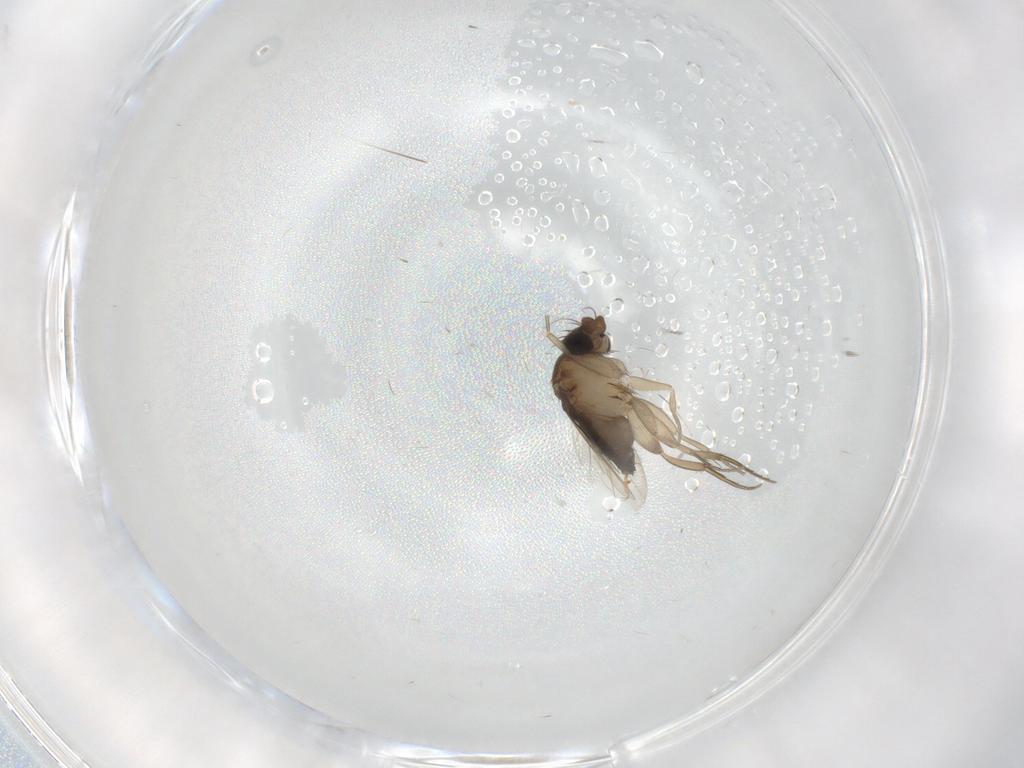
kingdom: Animalia
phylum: Arthropoda
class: Insecta
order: Diptera
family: Phoridae
